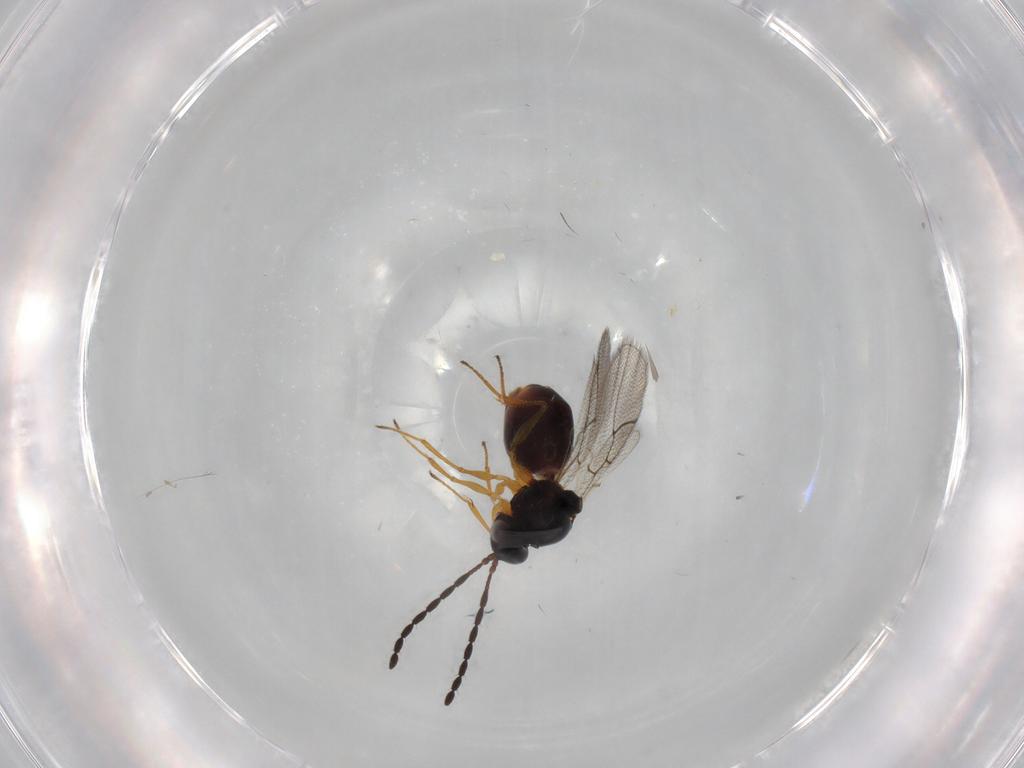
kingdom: Animalia
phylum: Arthropoda
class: Insecta
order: Hymenoptera
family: Figitidae
